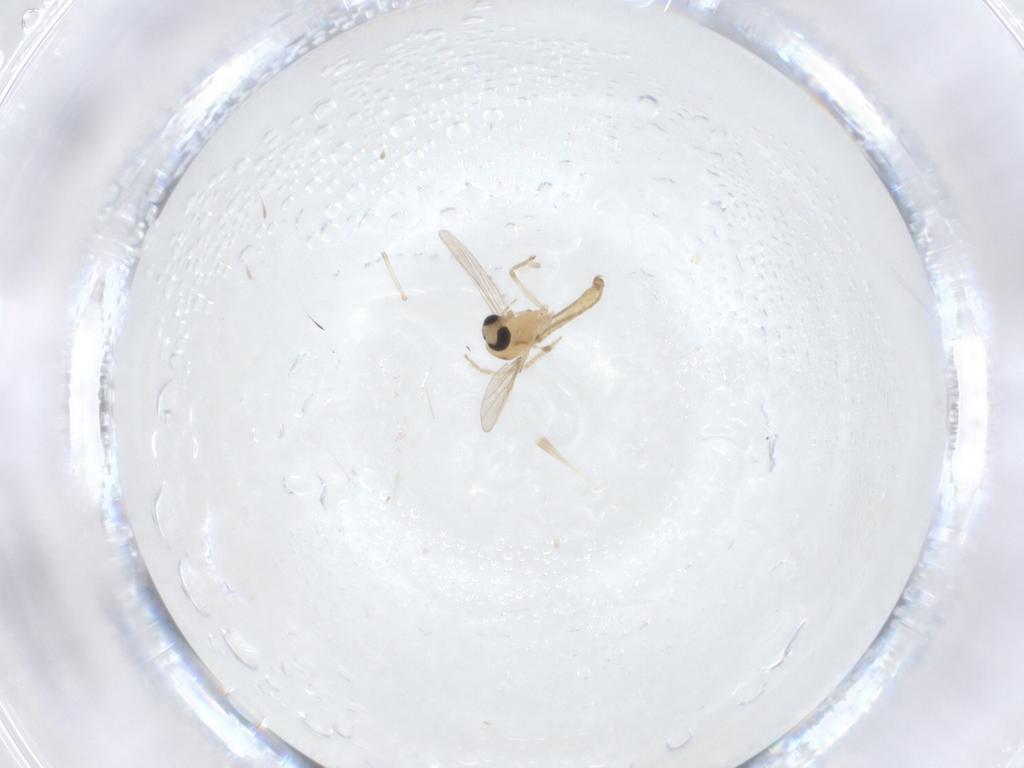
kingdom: Animalia
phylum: Arthropoda
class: Insecta
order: Diptera
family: Chironomidae
